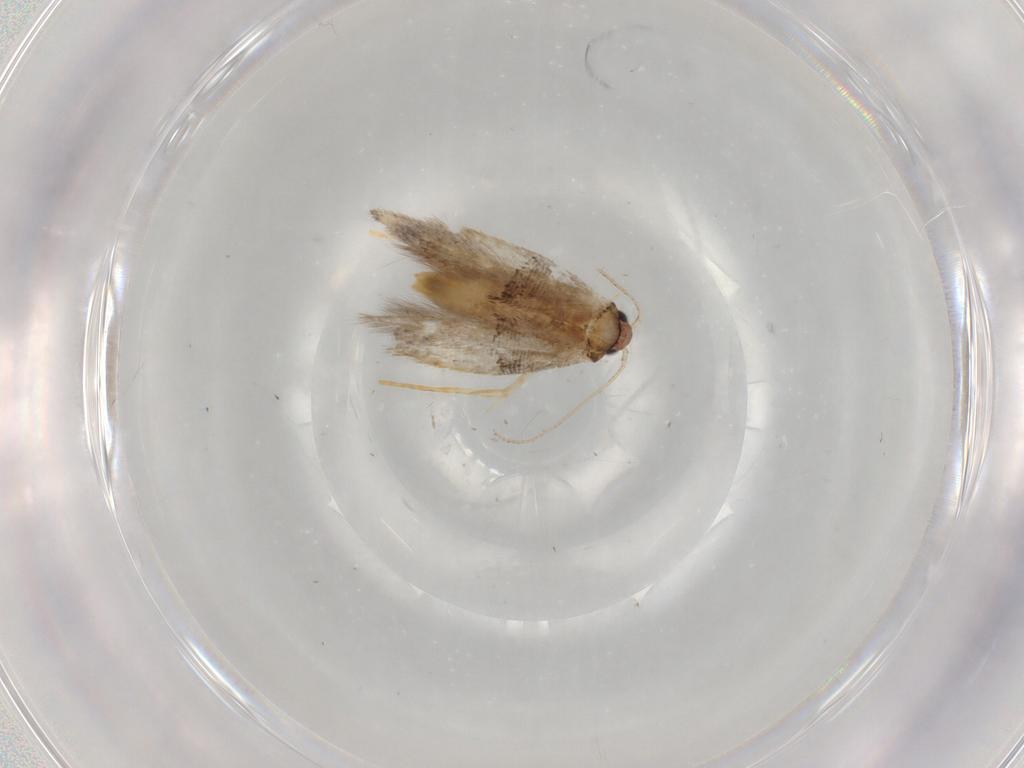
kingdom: Animalia
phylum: Arthropoda
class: Insecta
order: Lepidoptera
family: Tineidae
